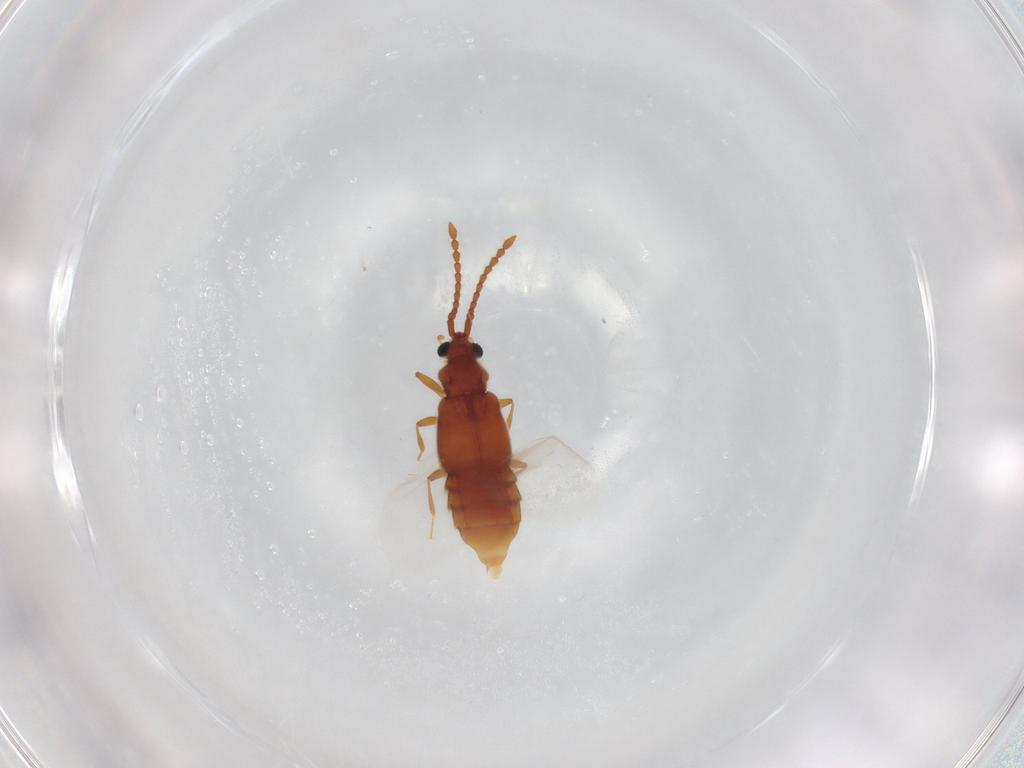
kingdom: Animalia
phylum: Arthropoda
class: Insecta
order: Coleoptera
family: Staphylinidae
